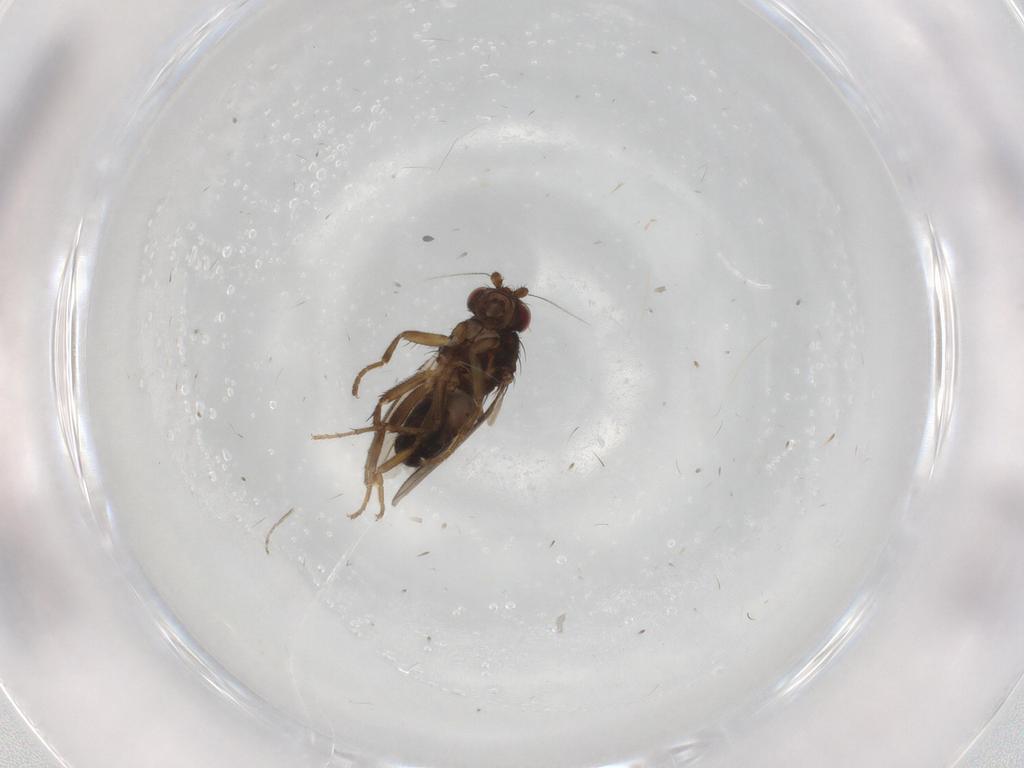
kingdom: Animalia
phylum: Arthropoda
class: Insecta
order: Diptera
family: Sphaeroceridae
